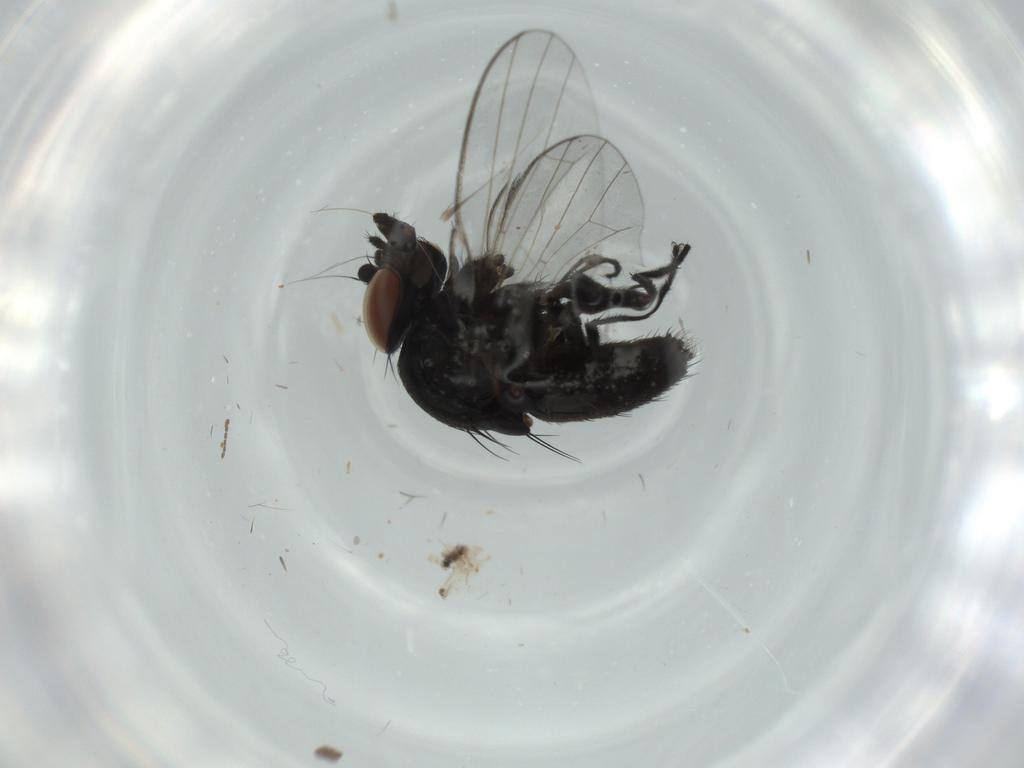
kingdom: Animalia
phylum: Arthropoda
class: Insecta
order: Diptera
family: Milichiidae
